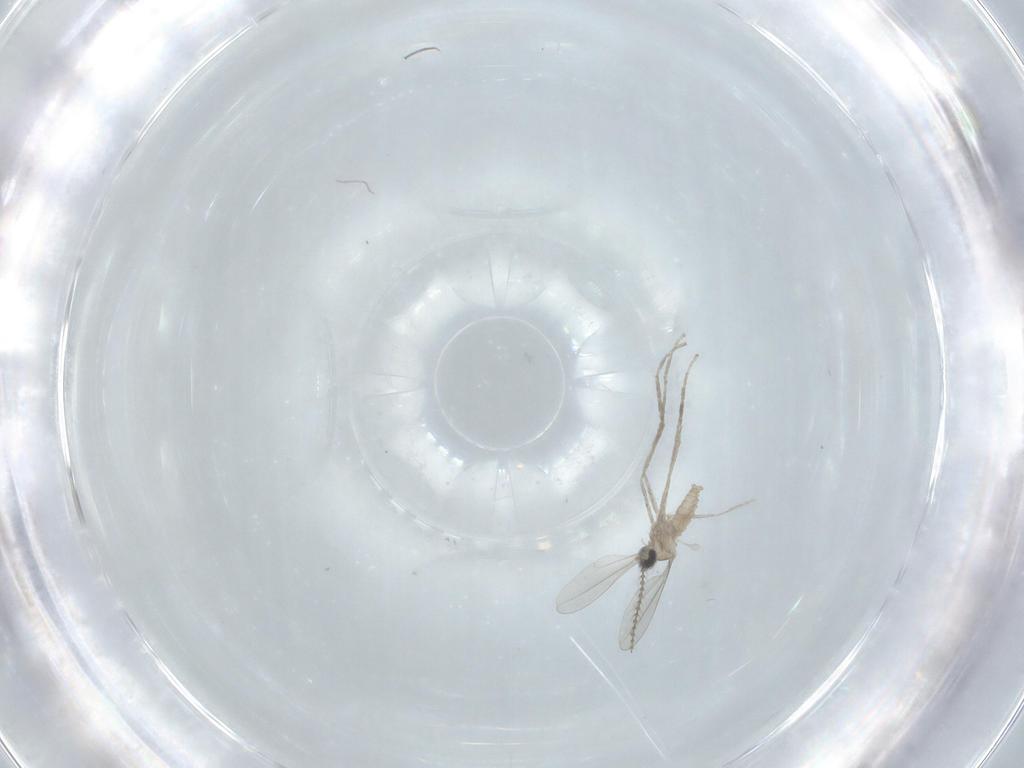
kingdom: Animalia
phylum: Arthropoda
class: Insecta
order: Diptera
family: Cecidomyiidae
